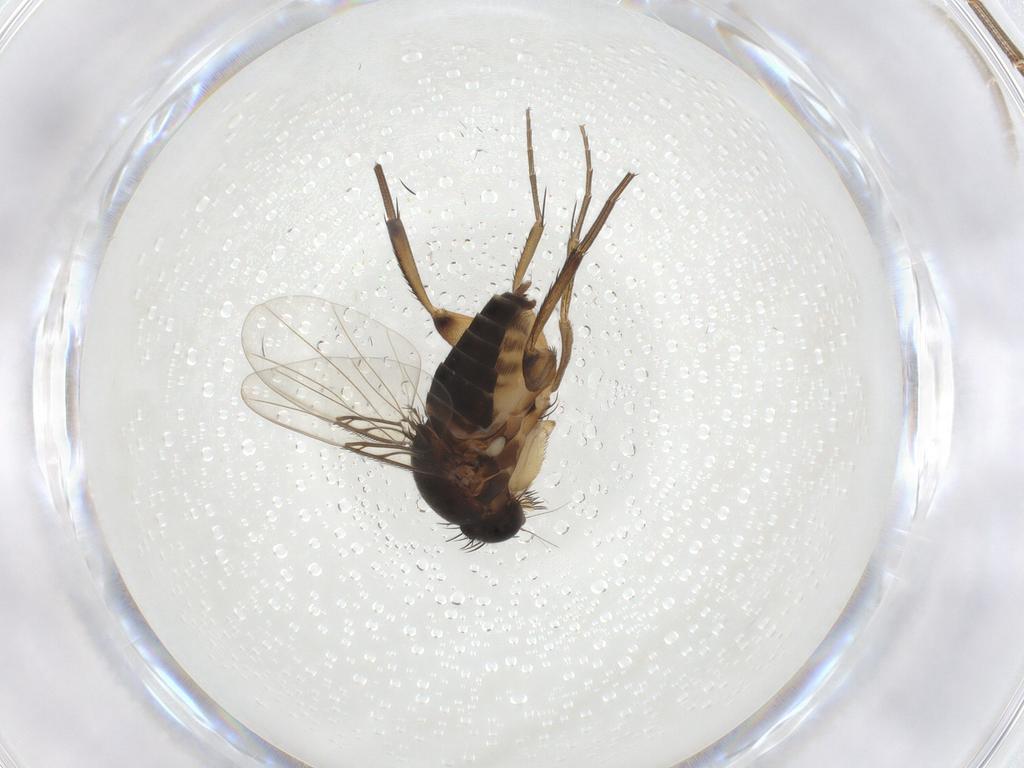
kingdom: Animalia
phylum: Arthropoda
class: Insecta
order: Diptera
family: Phoridae
